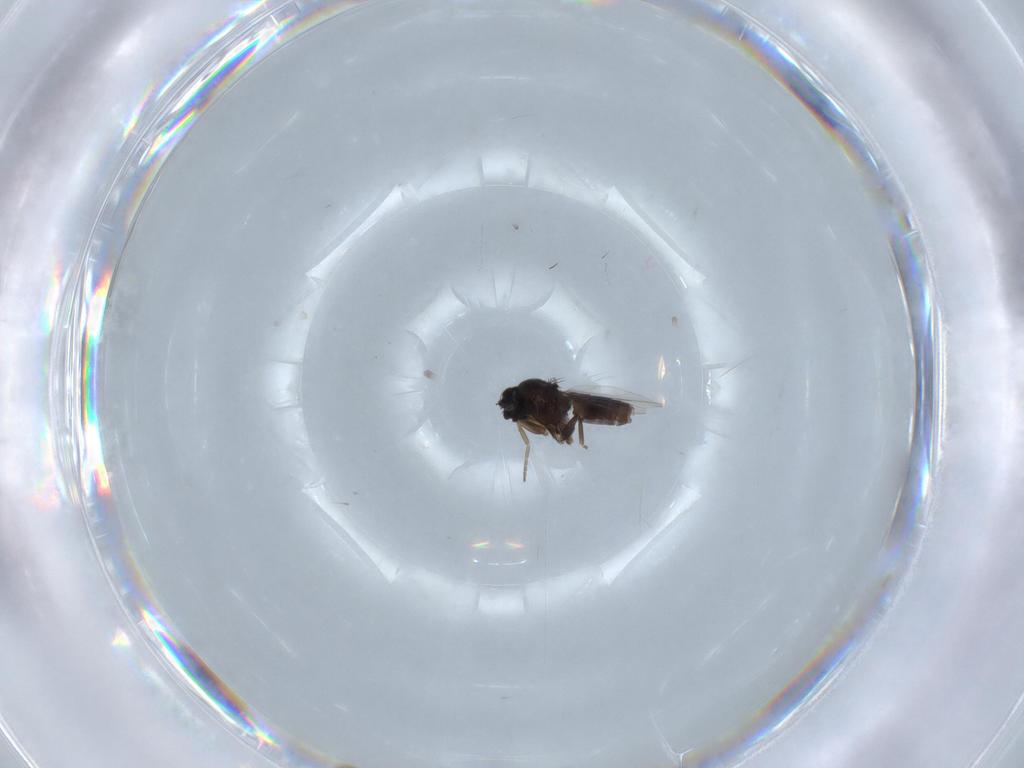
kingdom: Animalia
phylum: Arthropoda
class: Insecta
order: Diptera
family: Phoridae
